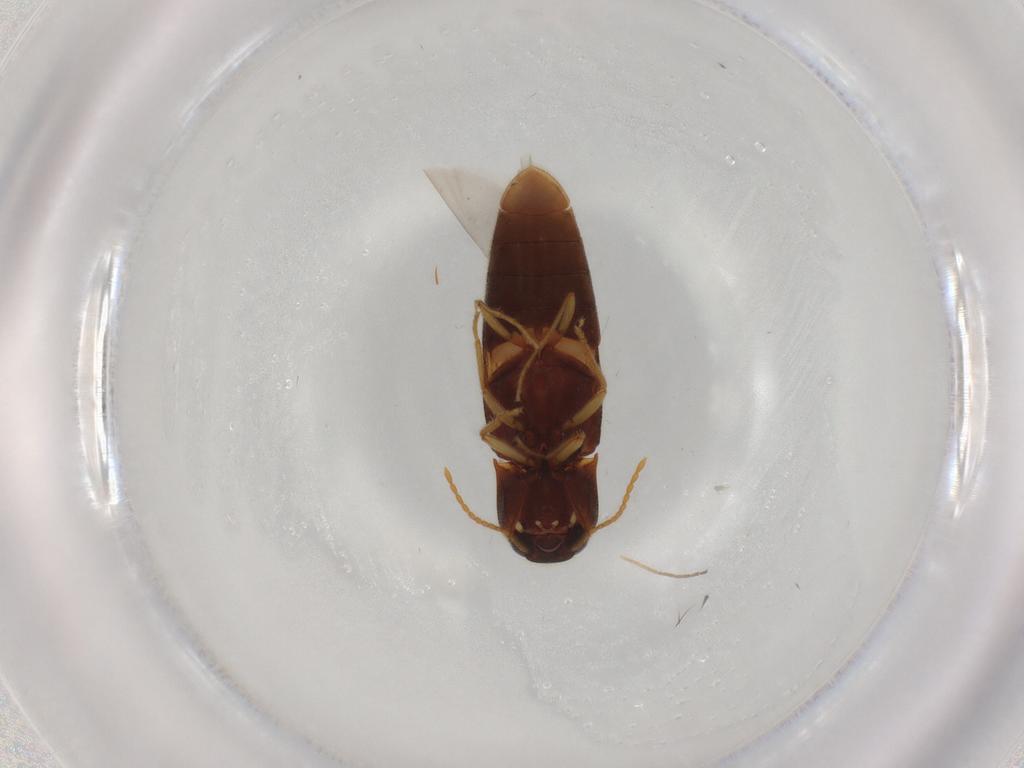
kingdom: Animalia
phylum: Arthropoda
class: Insecta
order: Coleoptera
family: Elateridae
